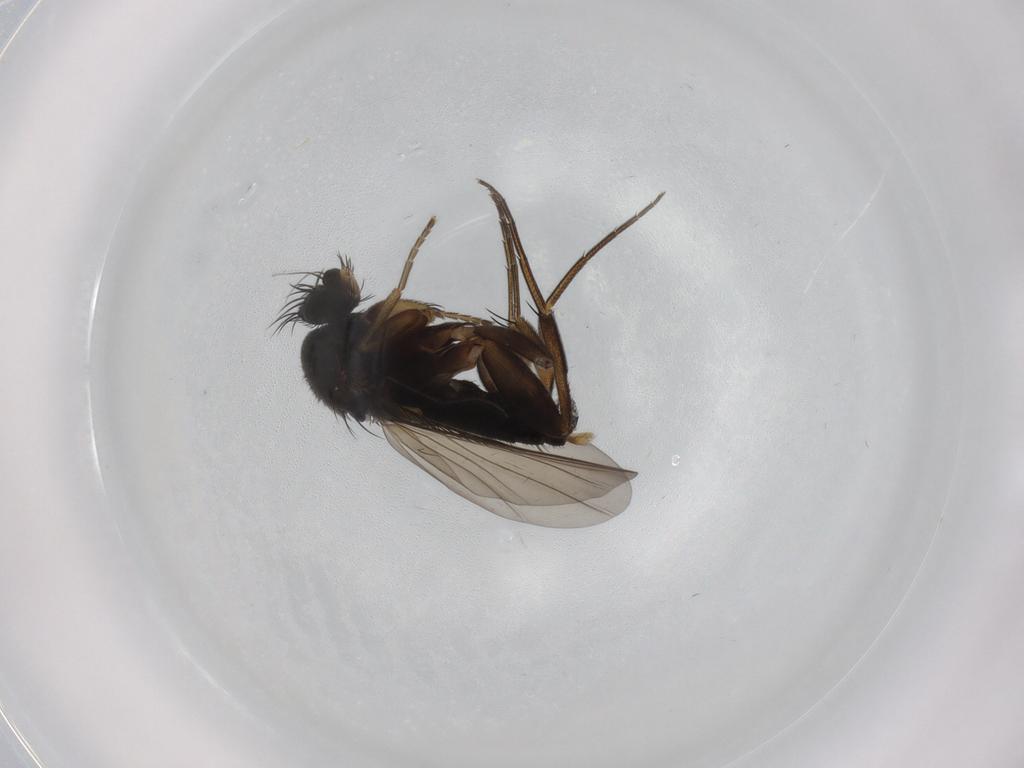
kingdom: Animalia
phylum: Arthropoda
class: Insecta
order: Diptera
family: Phoridae
